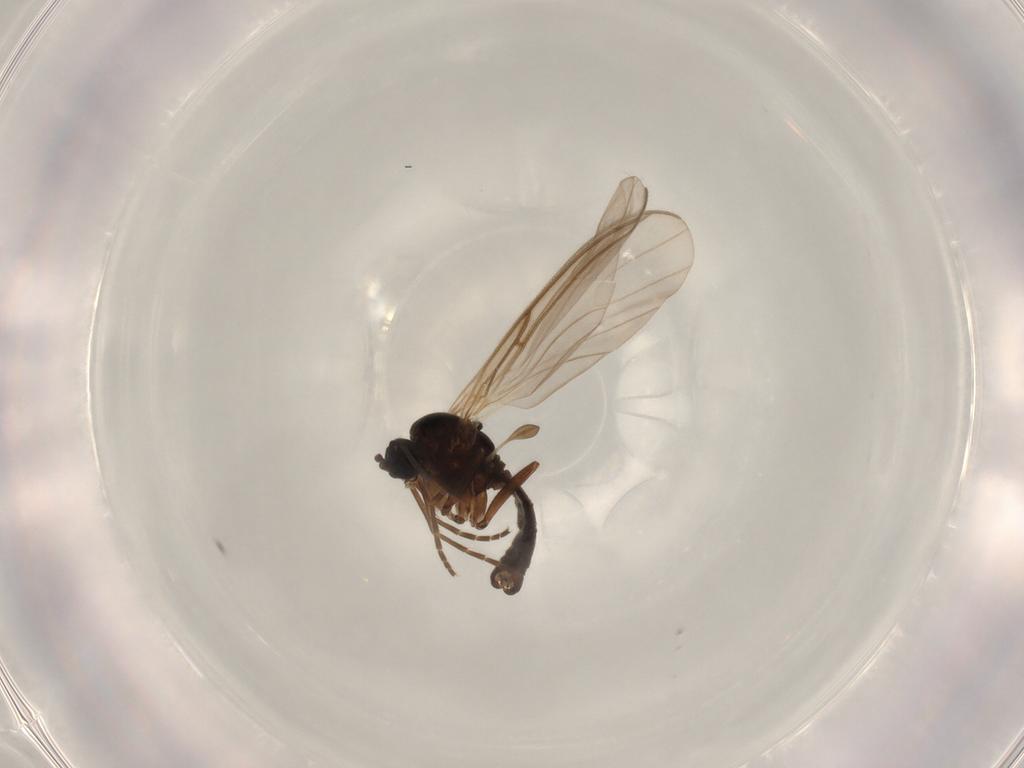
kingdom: Animalia
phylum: Arthropoda
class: Insecta
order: Diptera
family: Sciaridae
